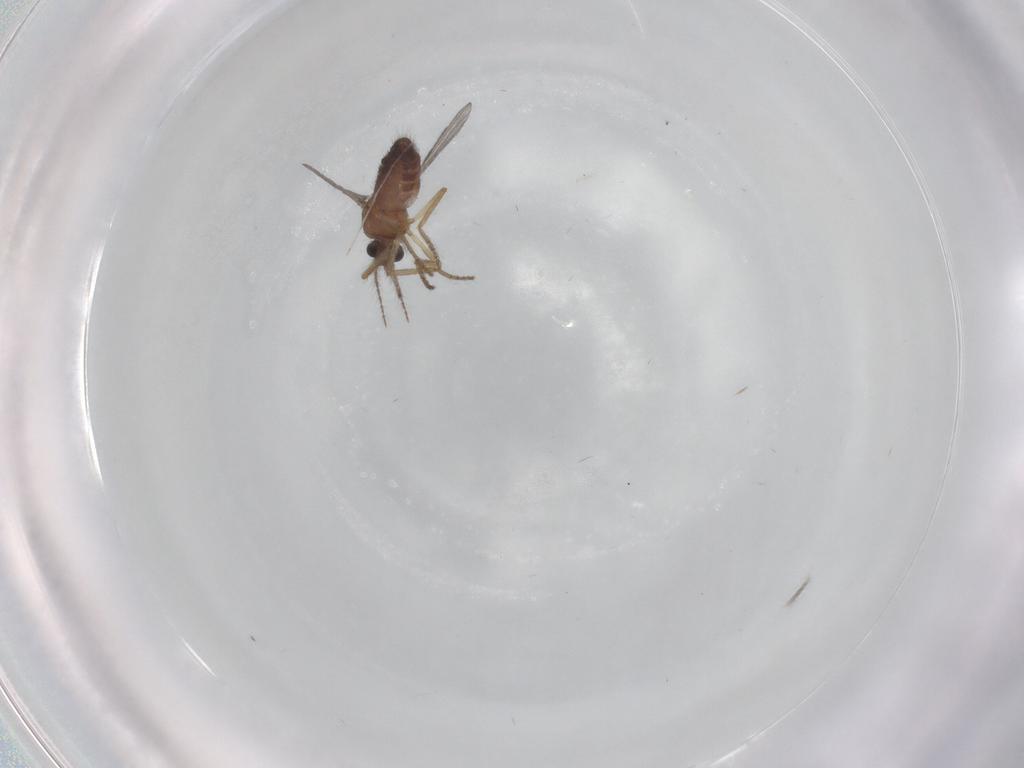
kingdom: Animalia
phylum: Arthropoda
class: Insecta
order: Diptera
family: Ceratopogonidae
